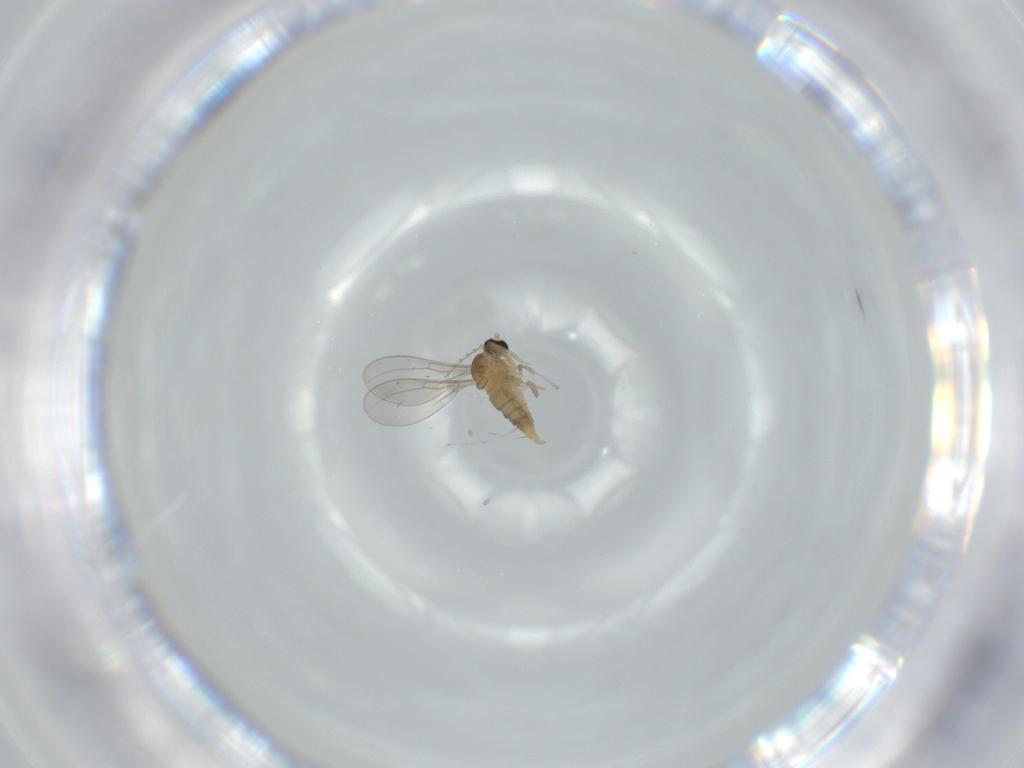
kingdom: Animalia
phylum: Arthropoda
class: Insecta
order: Diptera
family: Cecidomyiidae
